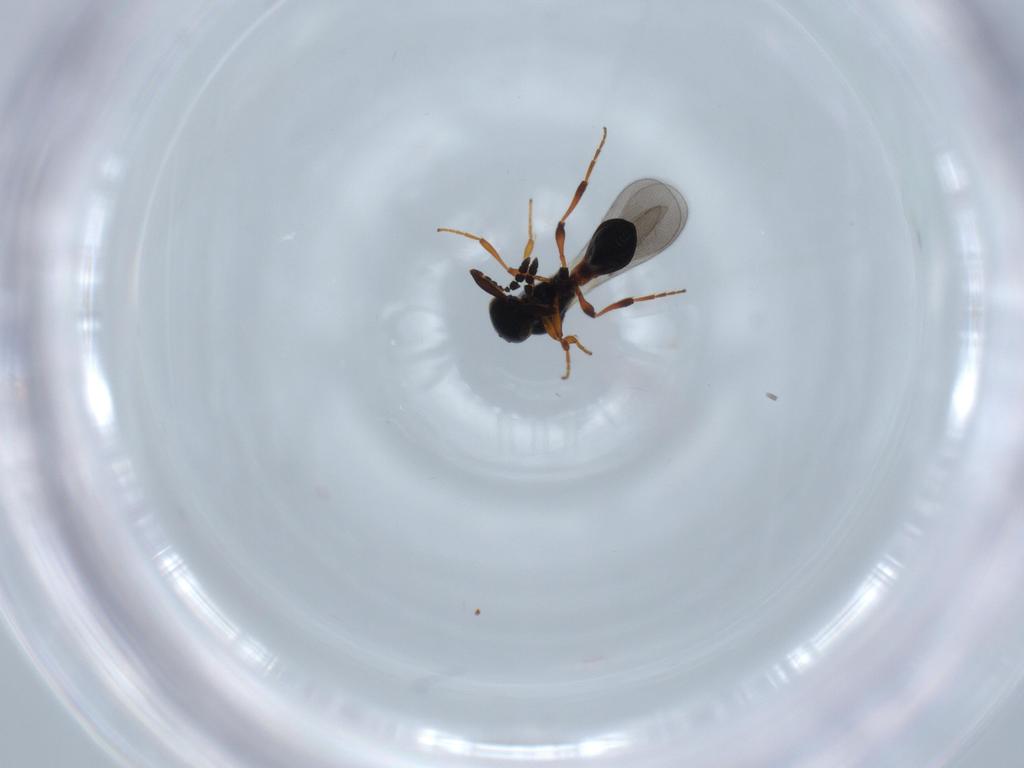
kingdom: Animalia
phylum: Arthropoda
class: Insecta
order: Hymenoptera
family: Platygastridae
